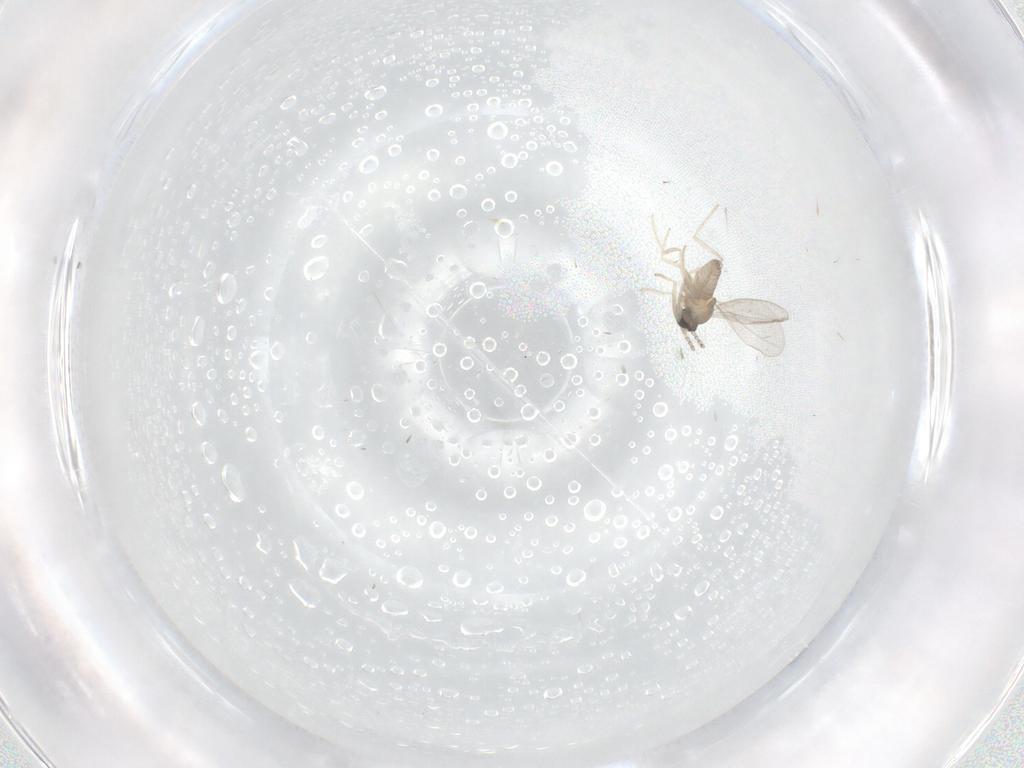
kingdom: Animalia
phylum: Arthropoda
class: Insecta
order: Diptera
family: Cecidomyiidae
